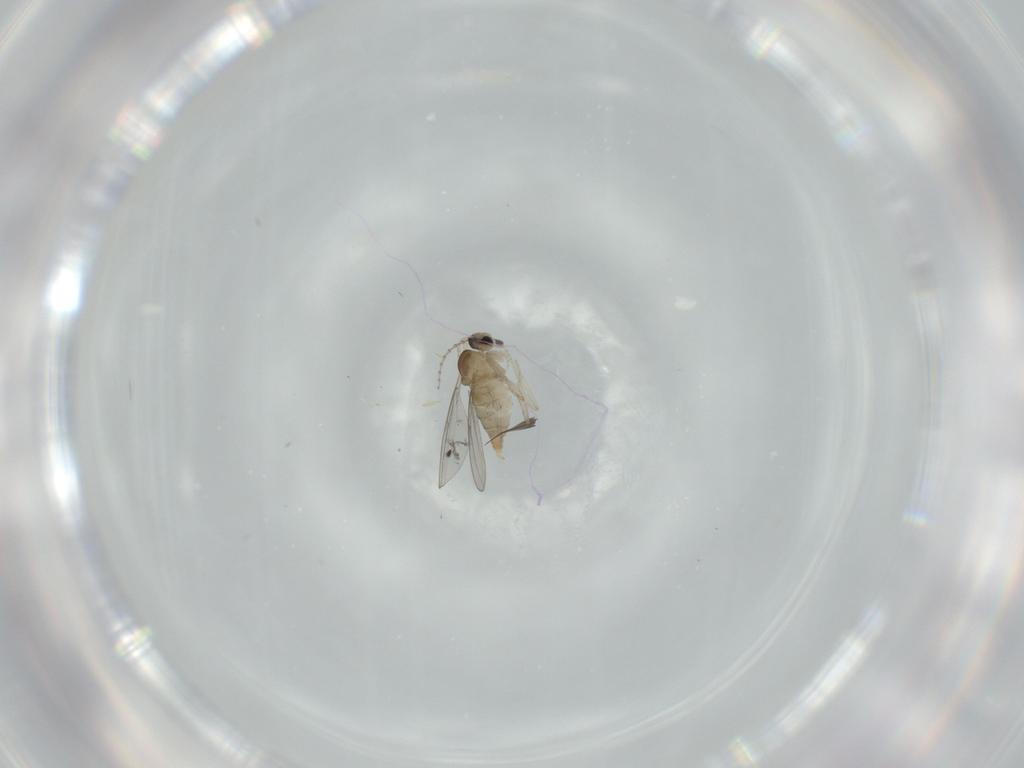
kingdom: Animalia
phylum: Arthropoda
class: Insecta
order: Diptera
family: Cecidomyiidae
